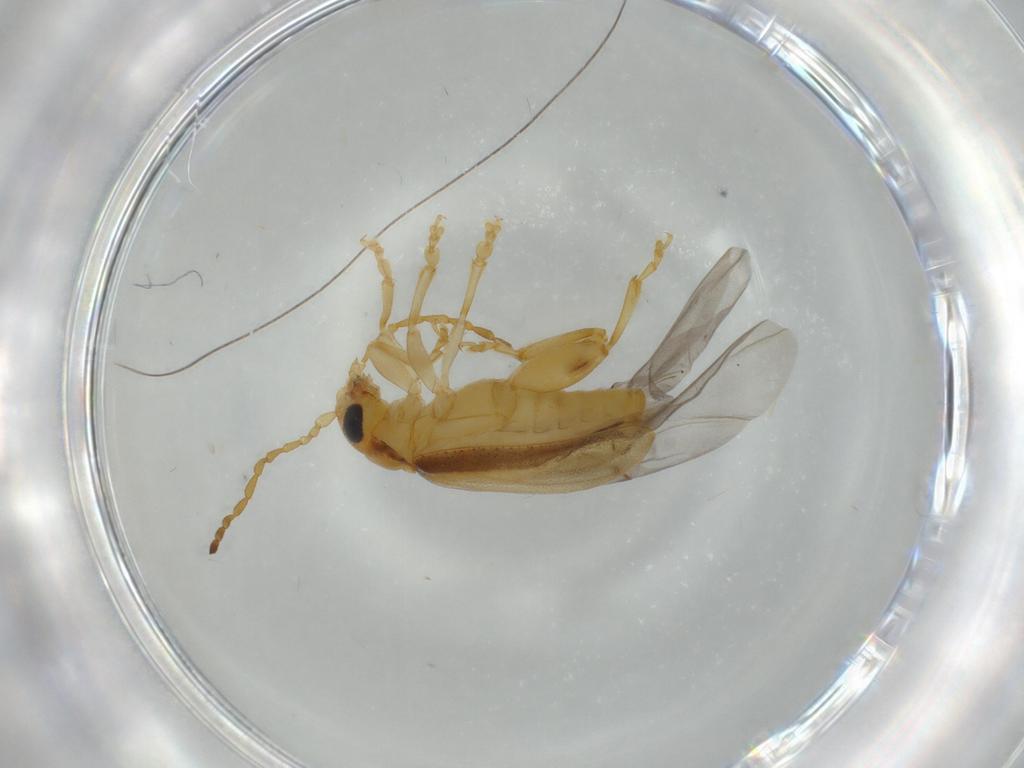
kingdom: Animalia
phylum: Arthropoda
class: Insecta
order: Coleoptera
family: Chrysomelidae
